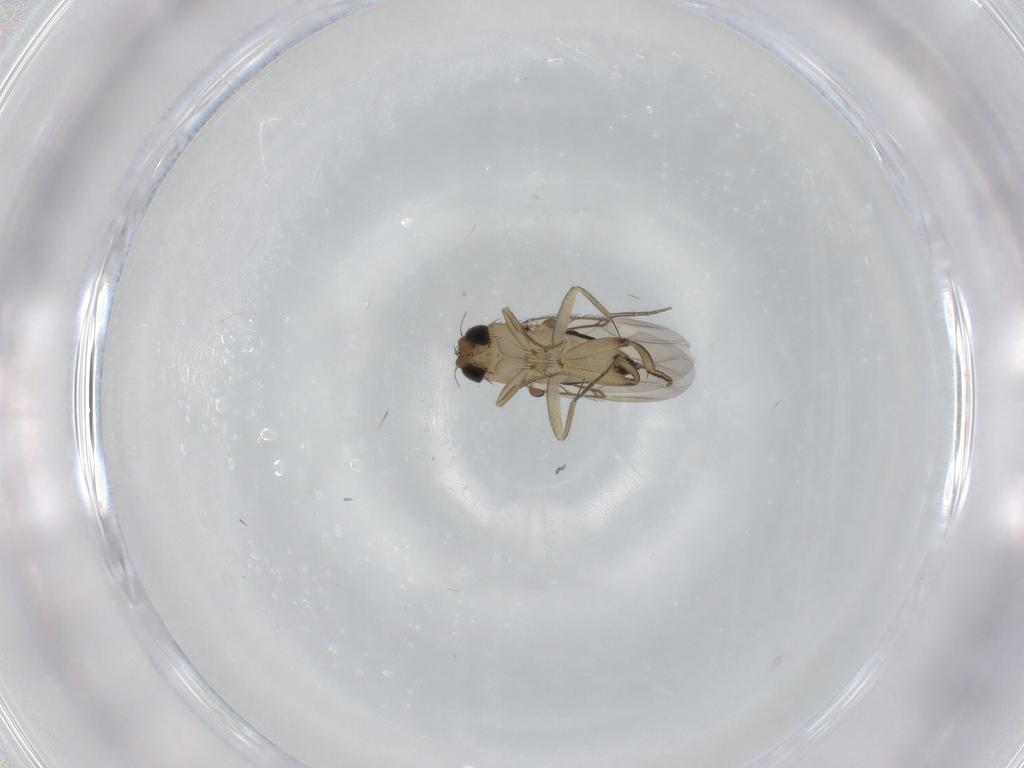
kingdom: Animalia
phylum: Arthropoda
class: Insecta
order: Diptera
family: Phoridae
